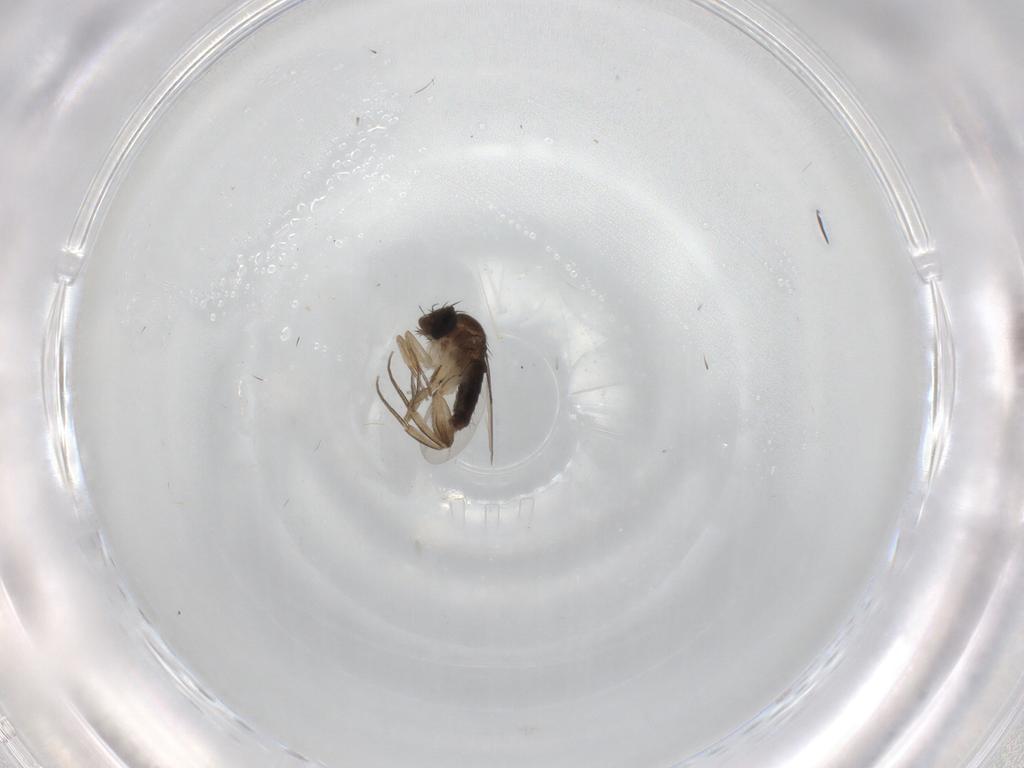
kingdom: Animalia
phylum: Arthropoda
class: Insecta
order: Diptera
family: Phoridae
